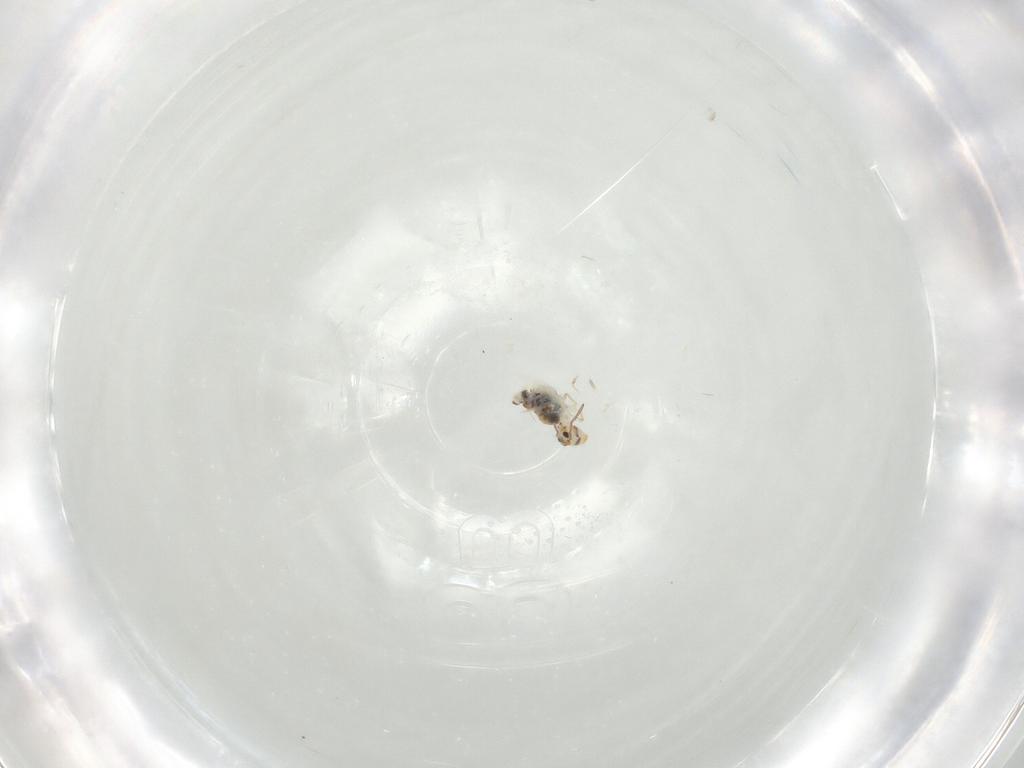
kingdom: Animalia
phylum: Arthropoda
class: Collembola
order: Symphypleona
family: Bourletiellidae
